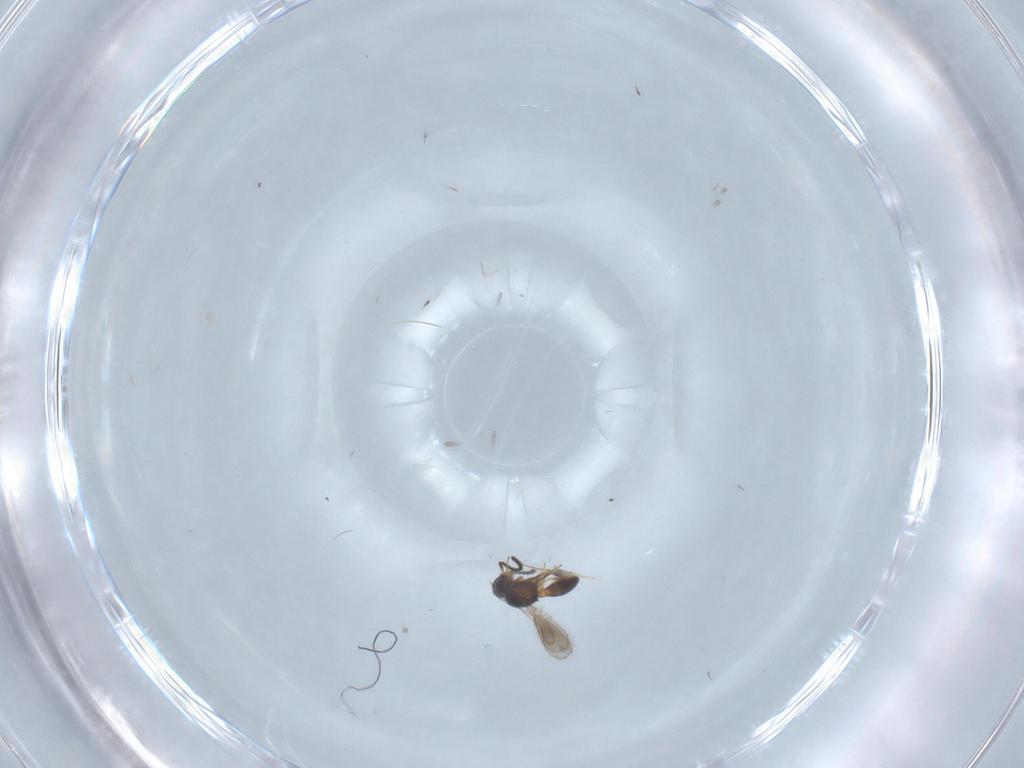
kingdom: Animalia
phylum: Arthropoda
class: Insecta
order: Hymenoptera
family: Scelionidae
